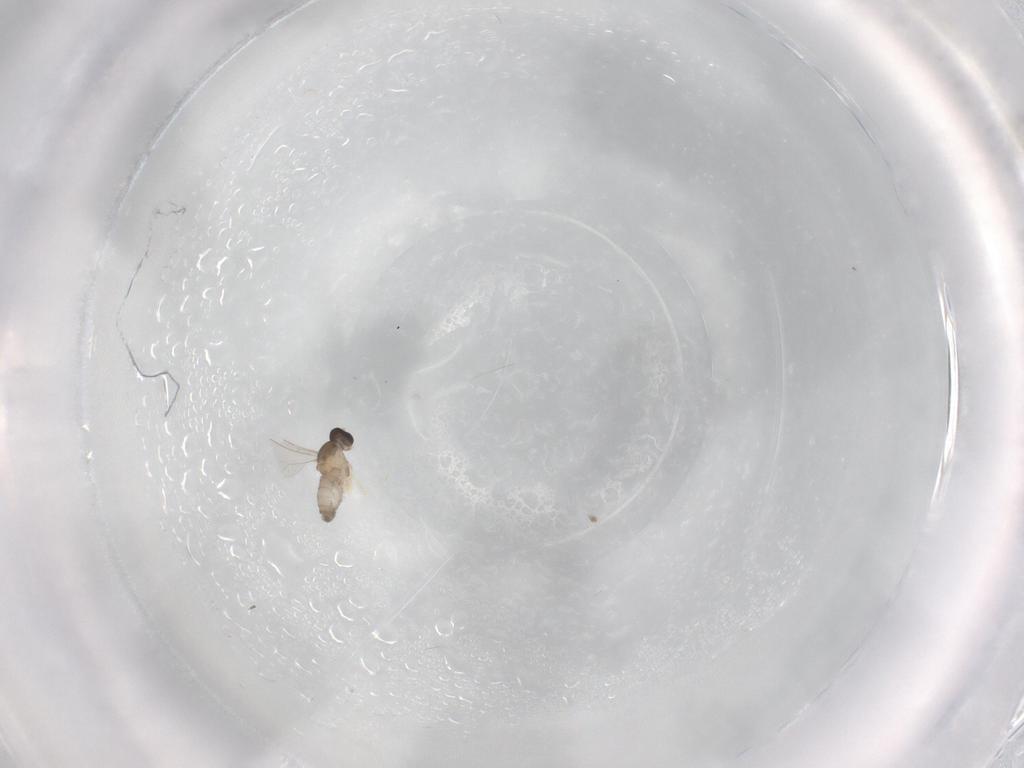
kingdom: Animalia
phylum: Arthropoda
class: Insecta
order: Diptera
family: Cecidomyiidae
